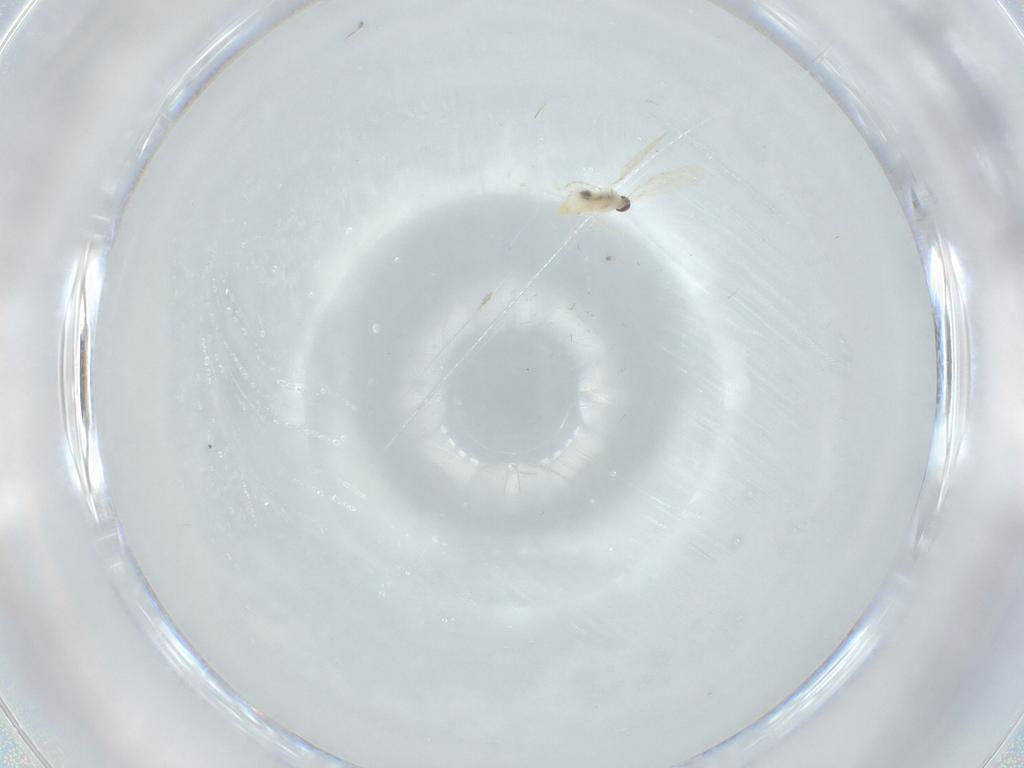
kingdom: Animalia
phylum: Arthropoda
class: Insecta
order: Diptera
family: Cecidomyiidae
